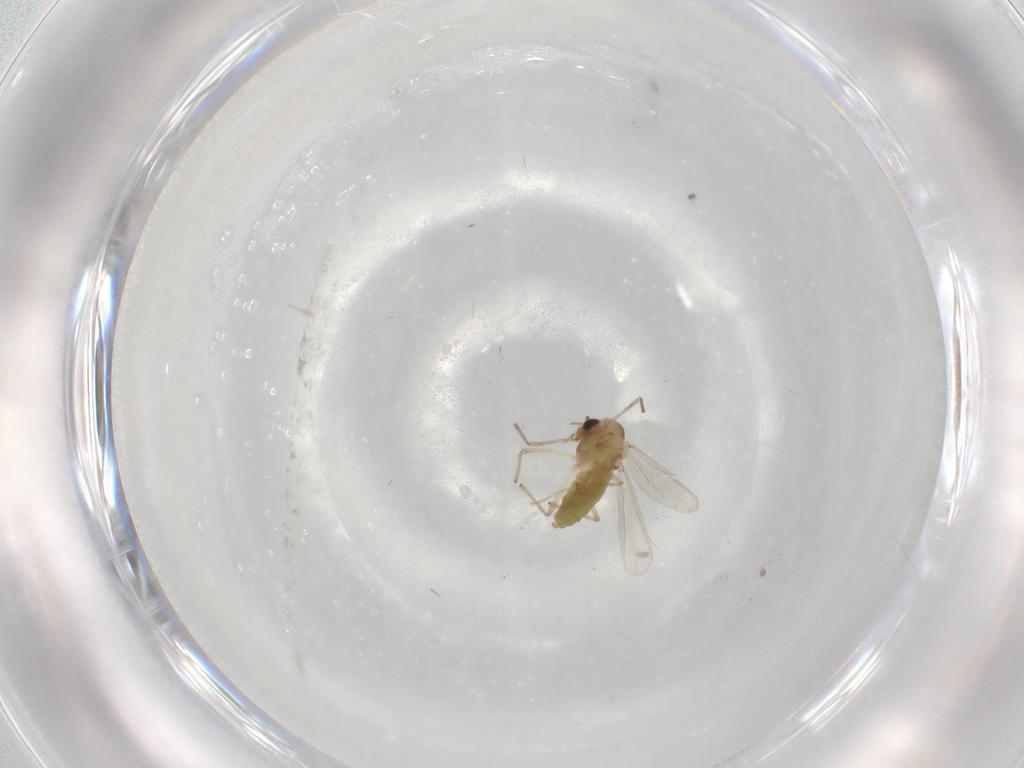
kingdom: Animalia
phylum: Arthropoda
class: Insecta
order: Diptera
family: Chironomidae
